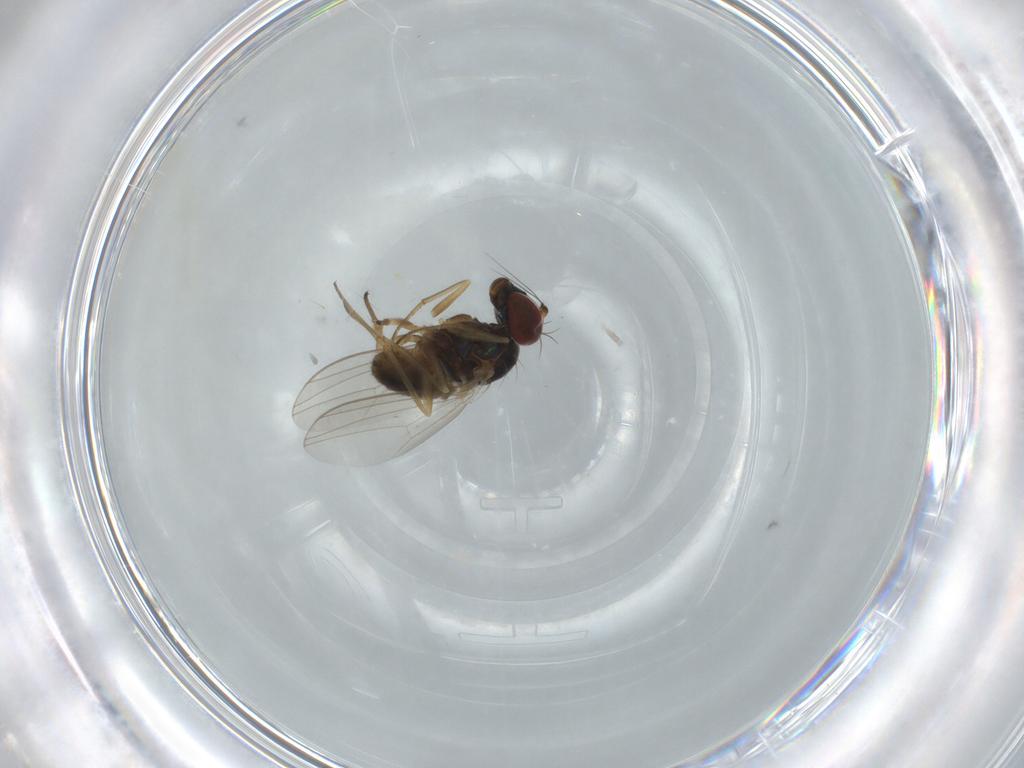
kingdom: Animalia
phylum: Arthropoda
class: Insecta
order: Diptera
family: Dolichopodidae
